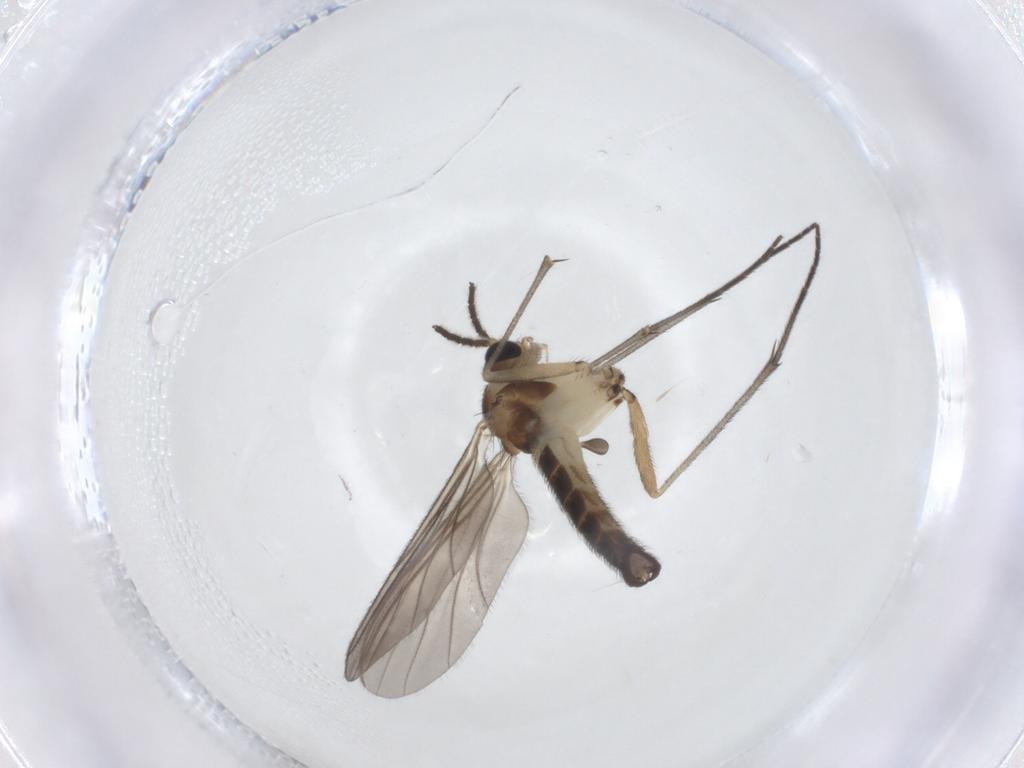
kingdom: Animalia
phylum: Arthropoda
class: Insecta
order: Diptera
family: Sciaridae
